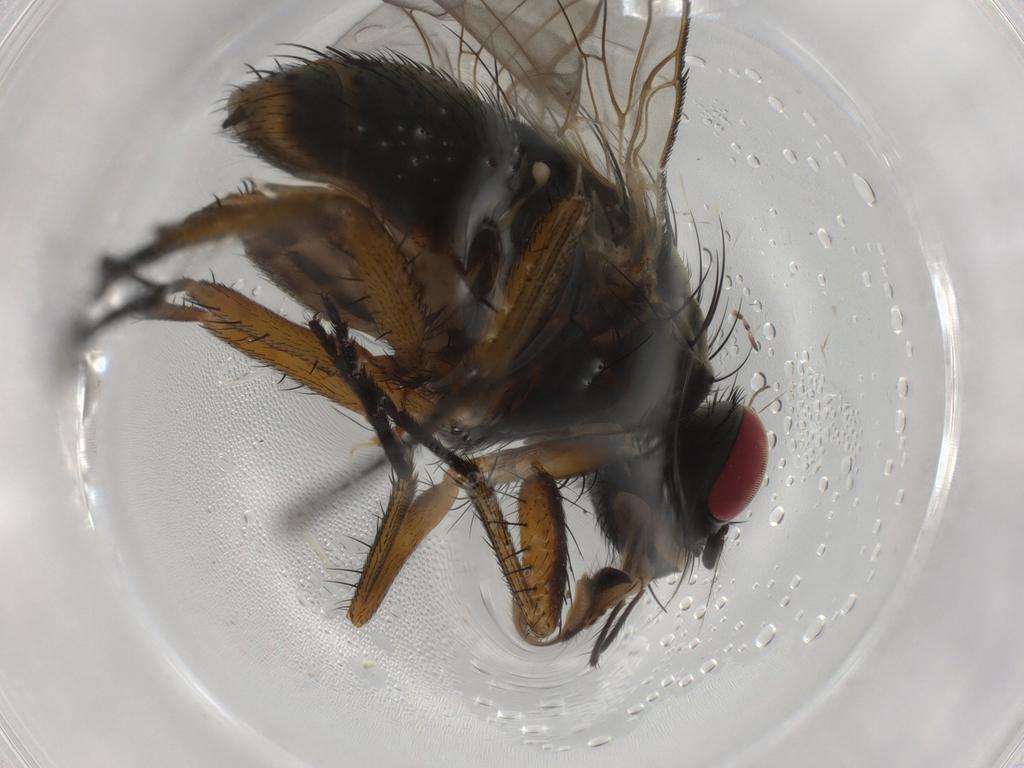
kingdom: Animalia
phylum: Arthropoda
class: Insecta
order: Diptera
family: Muscidae
